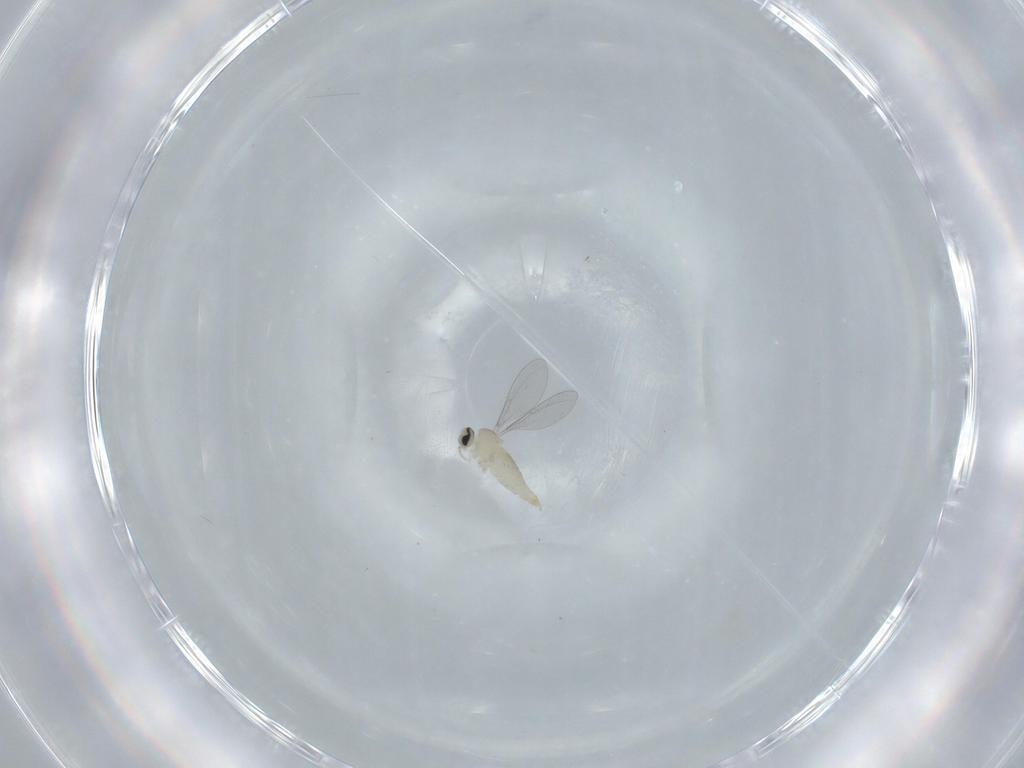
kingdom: Animalia
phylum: Arthropoda
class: Insecta
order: Diptera
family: Cecidomyiidae
